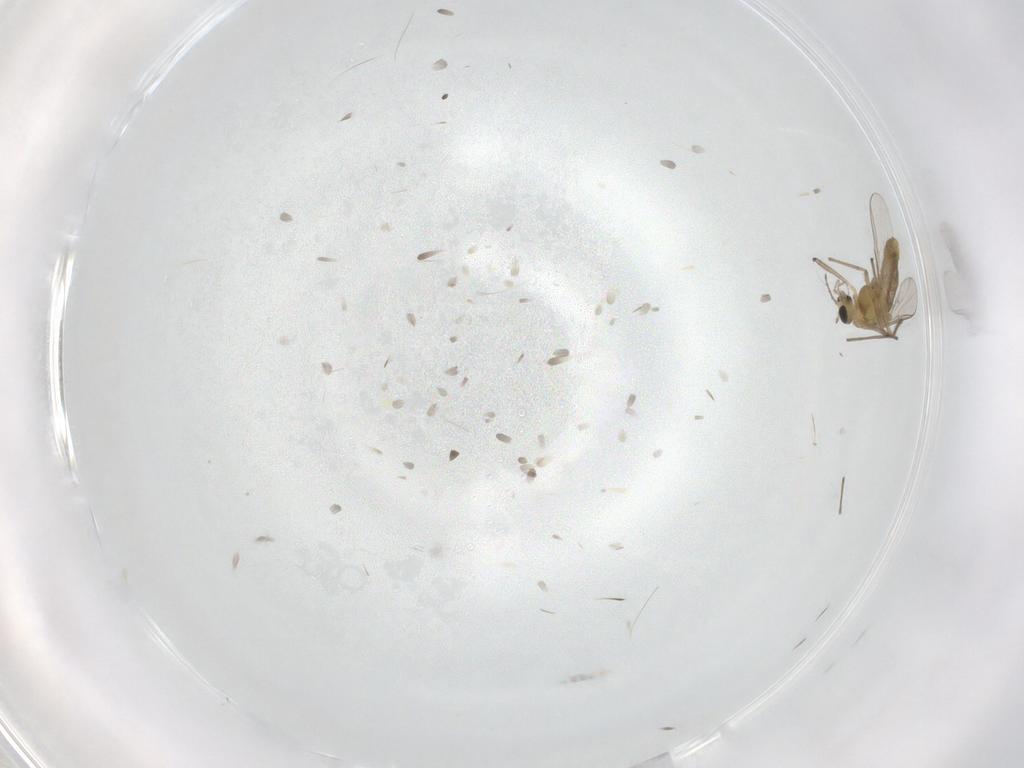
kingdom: Animalia
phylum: Arthropoda
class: Insecta
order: Diptera
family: Chironomidae
